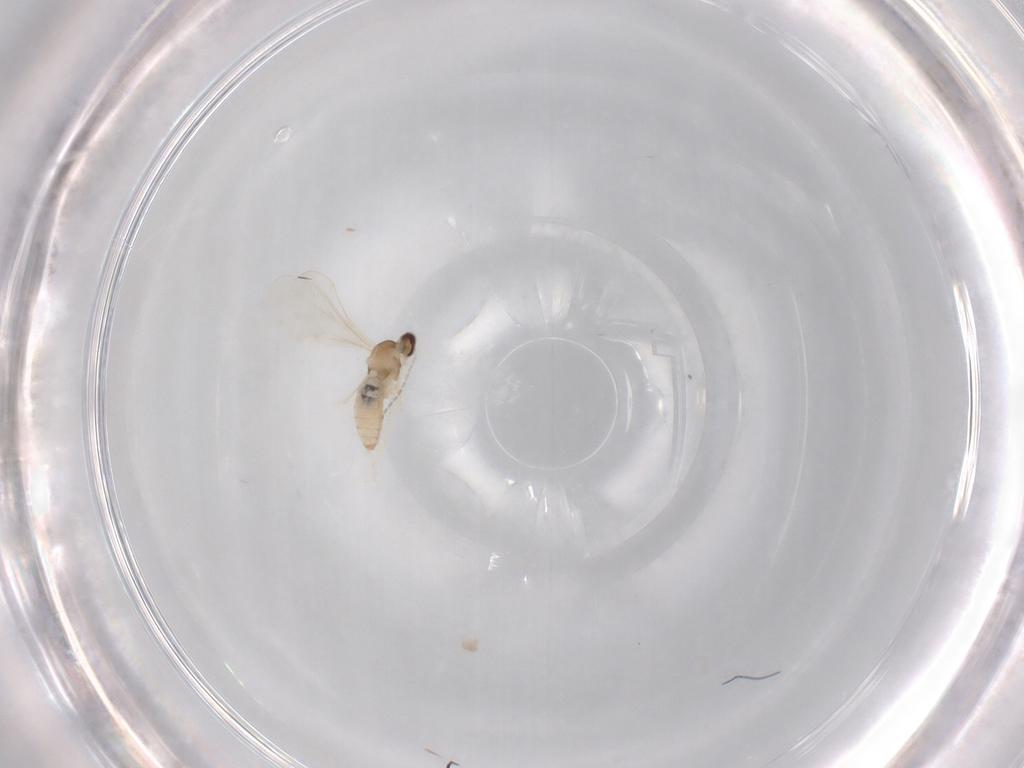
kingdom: Animalia
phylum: Arthropoda
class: Insecta
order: Diptera
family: Cecidomyiidae
